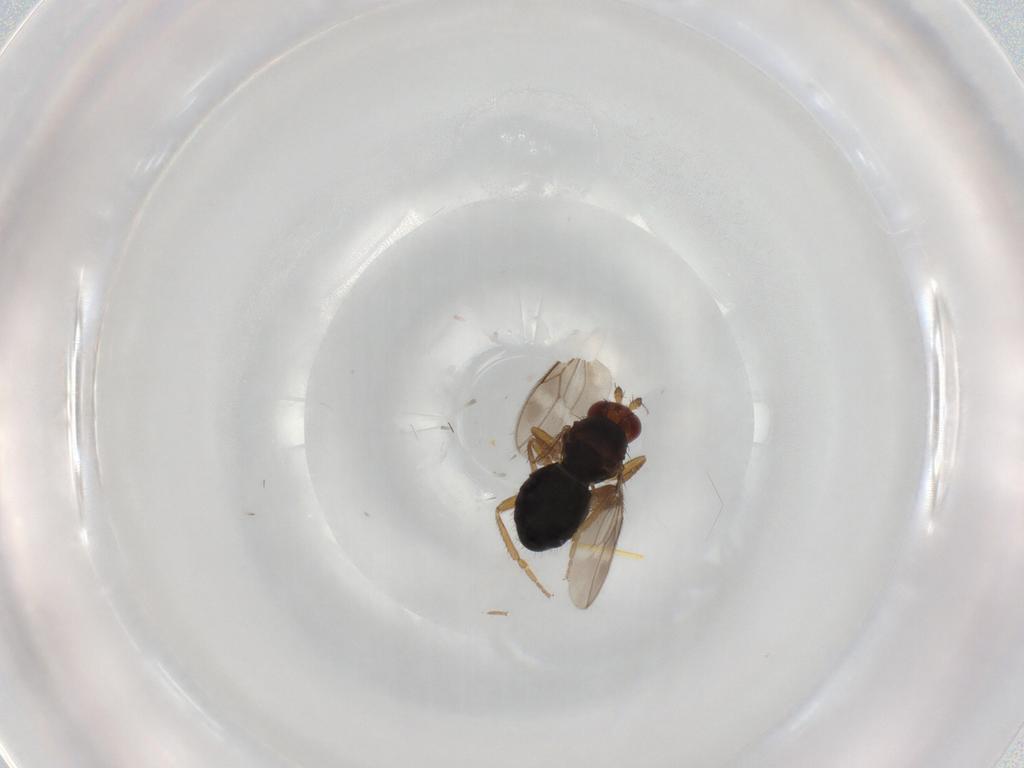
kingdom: Animalia
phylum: Arthropoda
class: Insecta
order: Diptera
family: Sphaeroceridae
